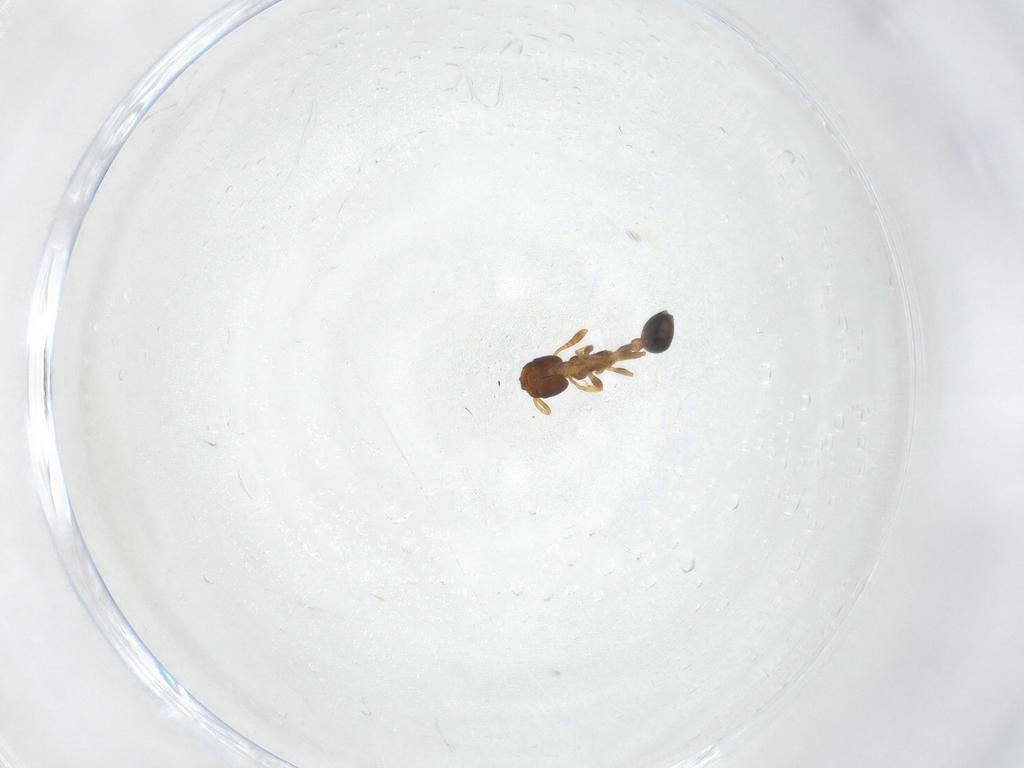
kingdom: Animalia
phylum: Arthropoda
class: Insecta
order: Hymenoptera
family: Formicidae
